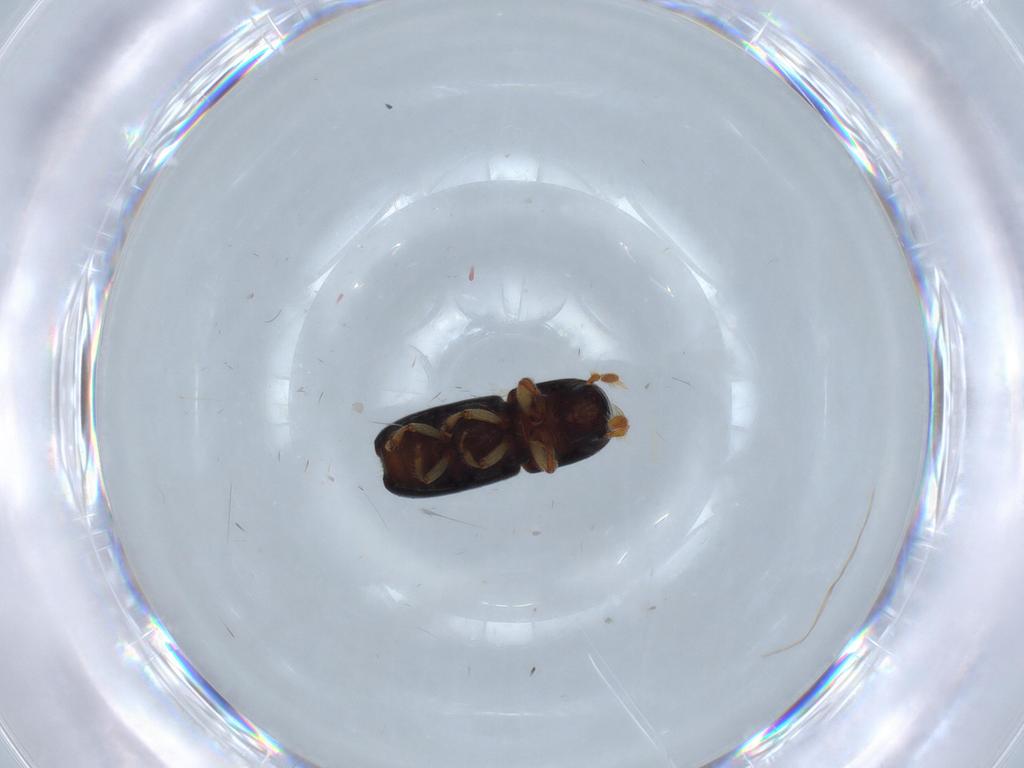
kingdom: Animalia
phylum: Arthropoda
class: Insecta
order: Coleoptera
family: Curculionidae
